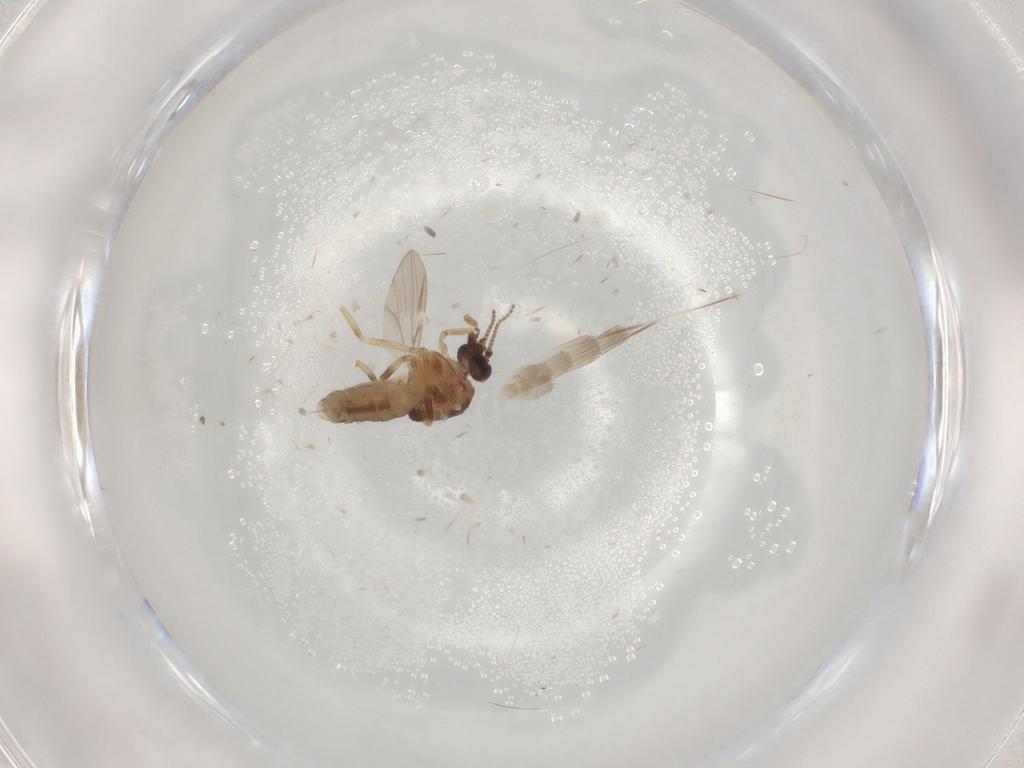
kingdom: Animalia
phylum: Arthropoda
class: Insecta
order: Diptera
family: Ceratopogonidae
